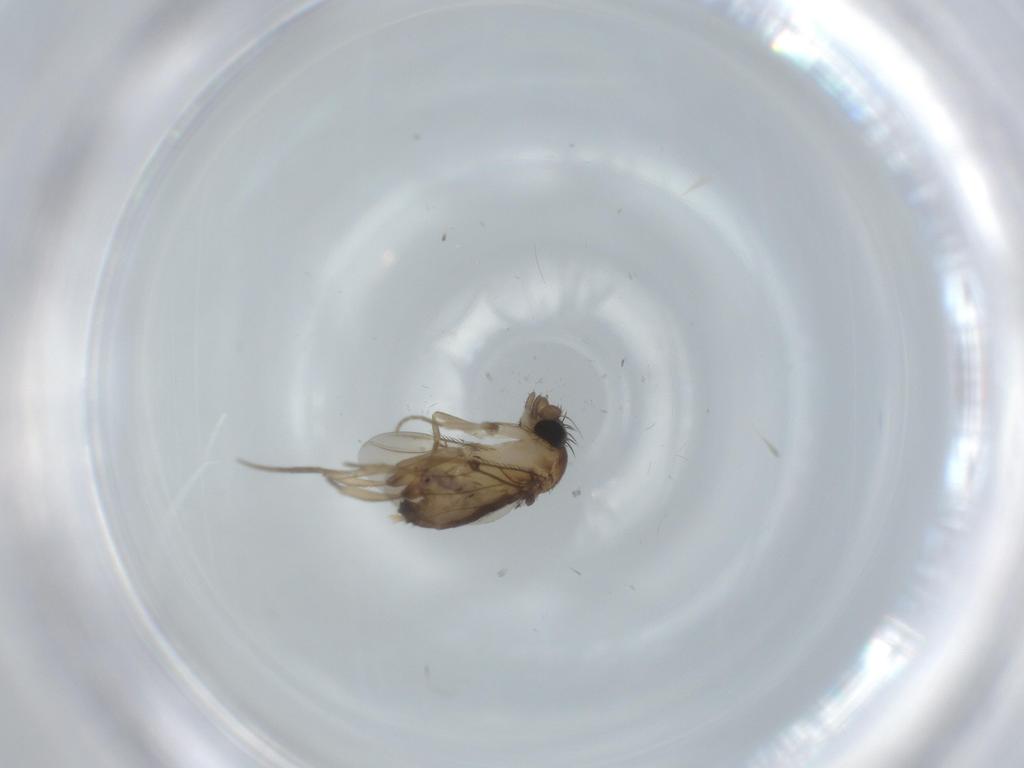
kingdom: Animalia
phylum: Arthropoda
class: Insecta
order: Diptera
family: Phoridae
